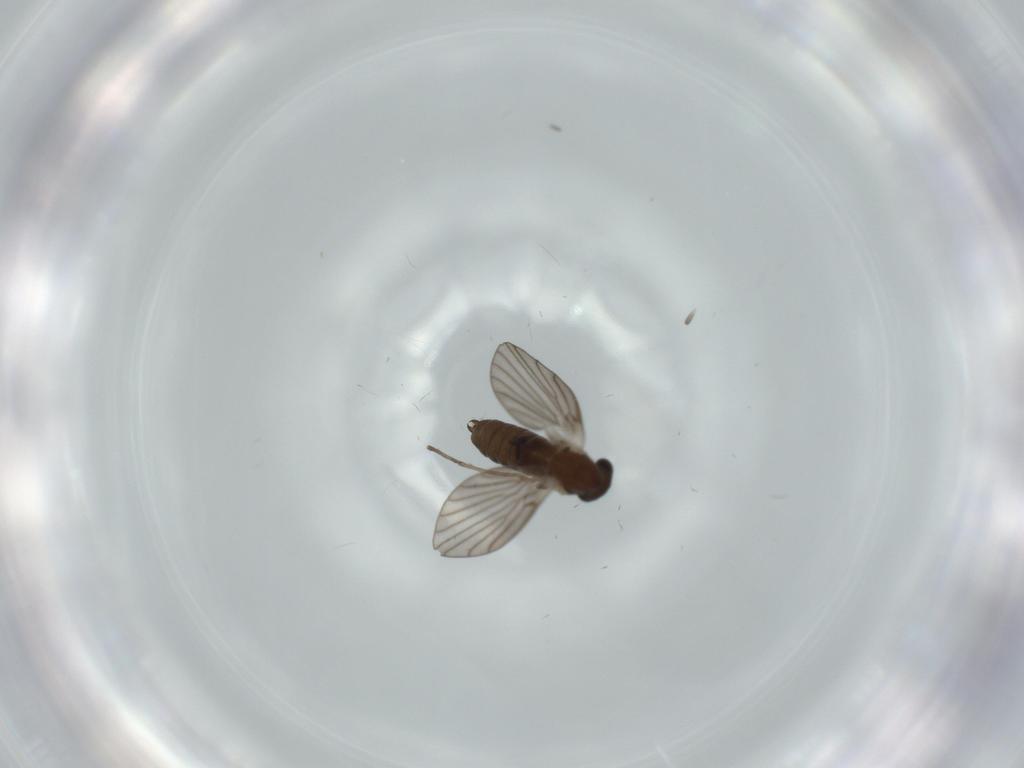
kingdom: Animalia
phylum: Arthropoda
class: Insecta
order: Diptera
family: Psychodidae
